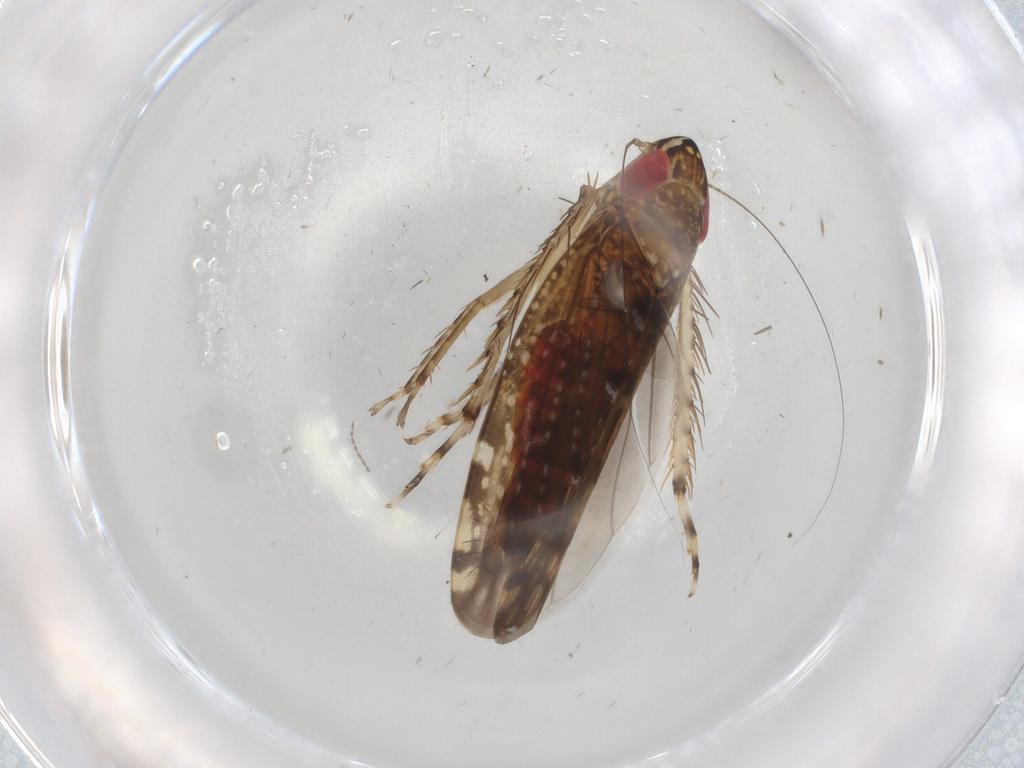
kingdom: Animalia
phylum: Arthropoda
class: Insecta
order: Hemiptera
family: Cicadellidae
